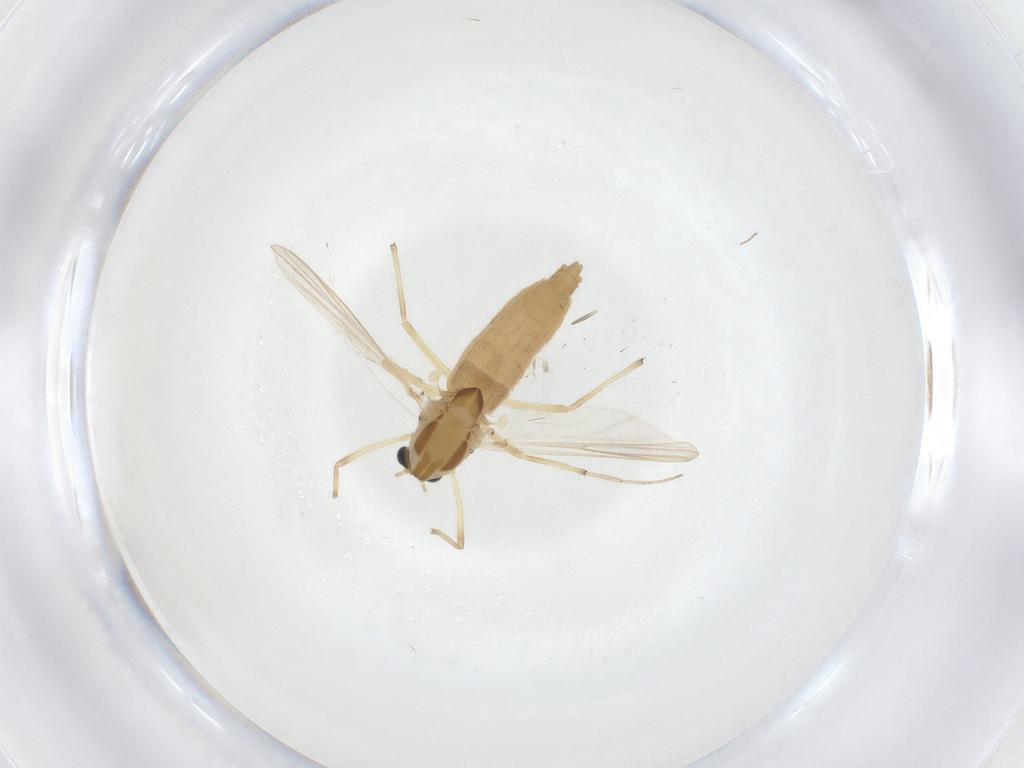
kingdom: Animalia
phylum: Arthropoda
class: Insecta
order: Diptera
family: Chironomidae
